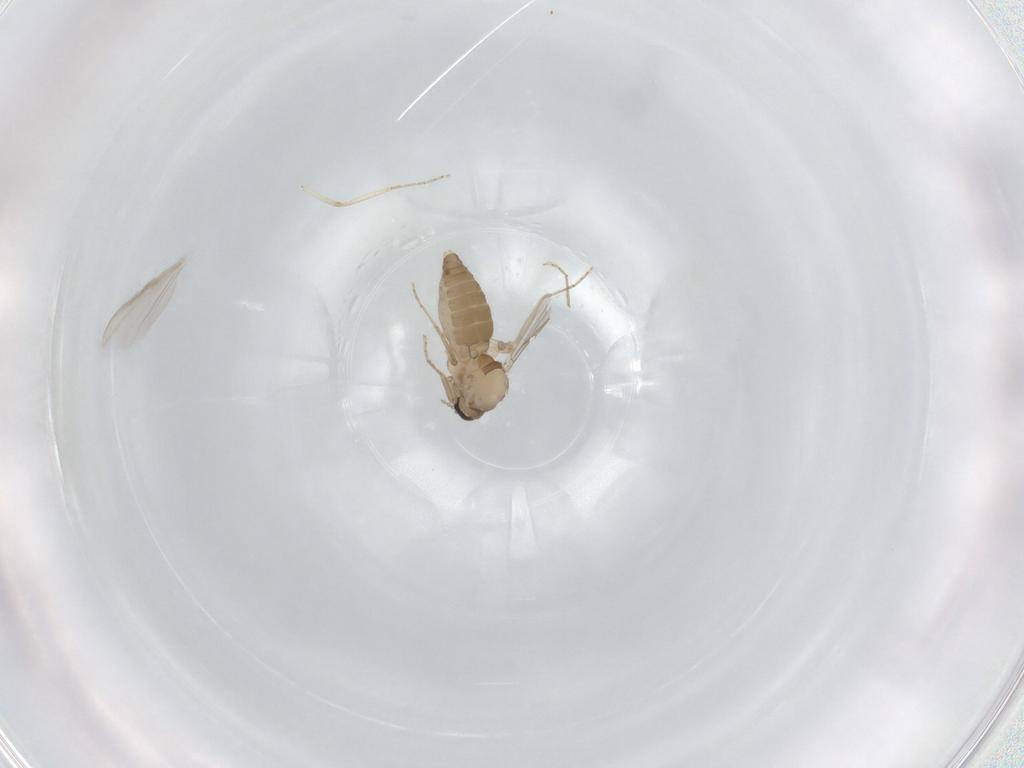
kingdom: Animalia
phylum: Arthropoda
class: Insecta
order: Diptera
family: Ceratopogonidae
